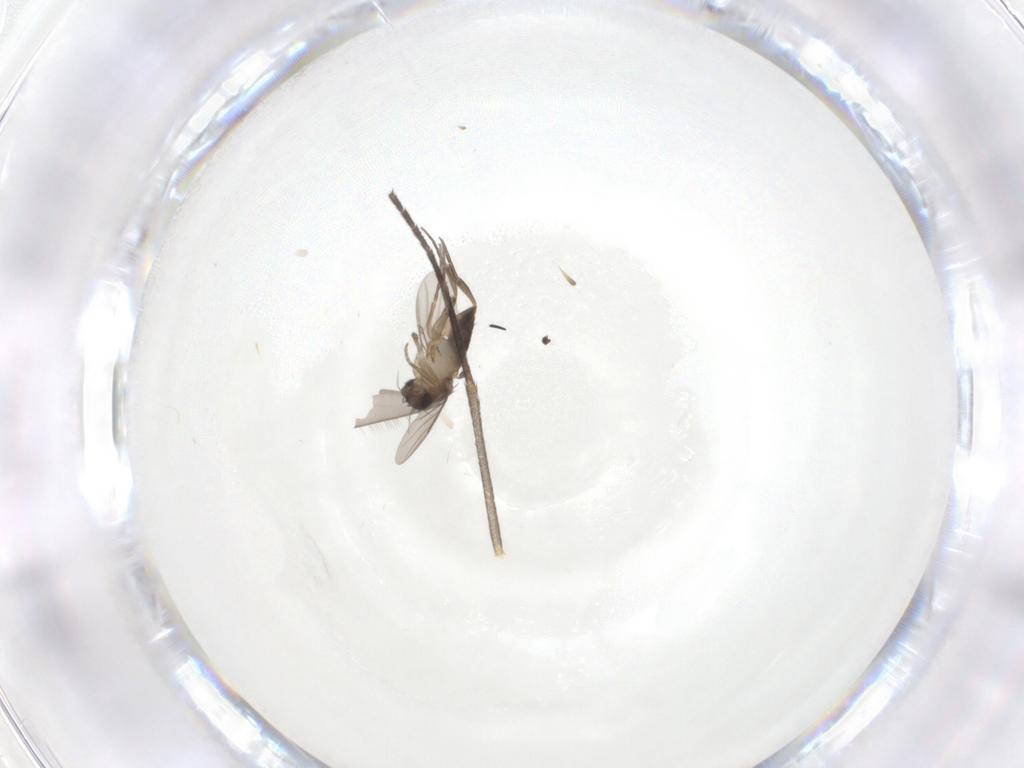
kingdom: Animalia
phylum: Arthropoda
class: Insecta
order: Diptera
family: Phoridae
